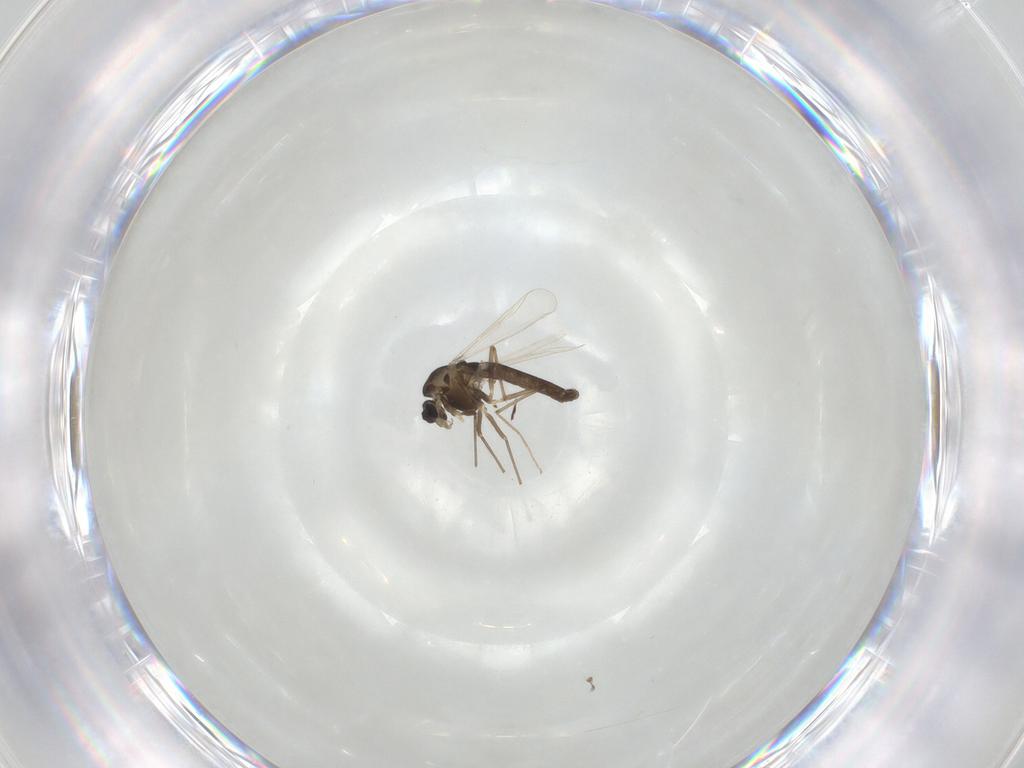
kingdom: Animalia
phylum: Arthropoda
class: Insecta
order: Diptera
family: Chironomidae
